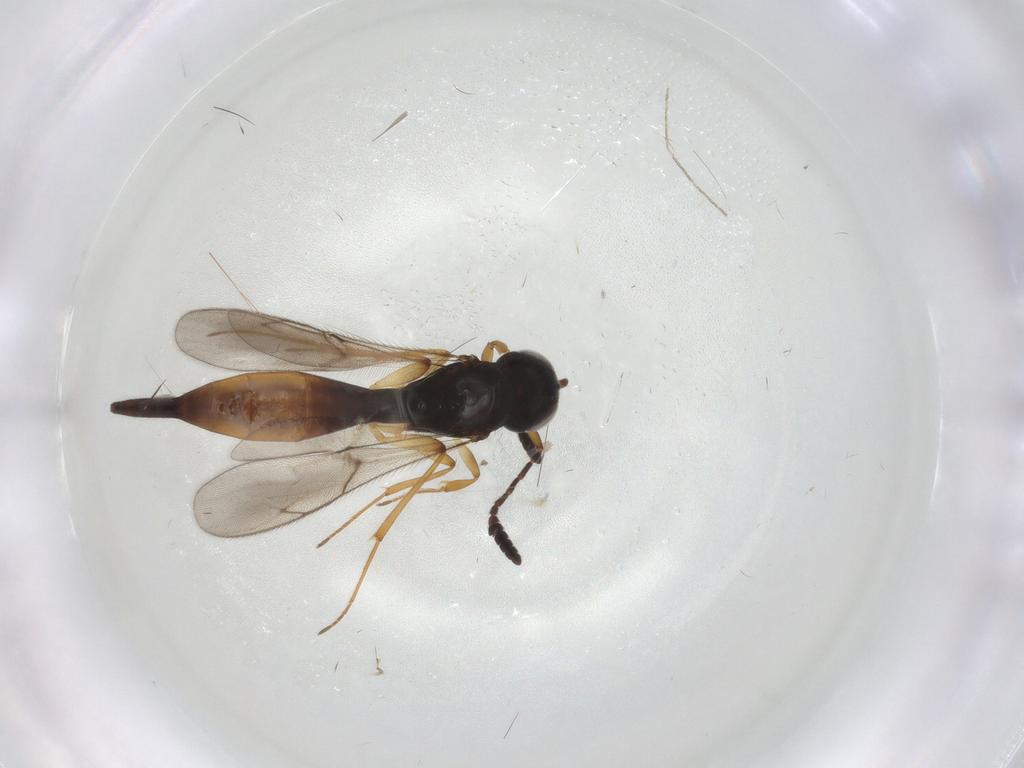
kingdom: Animalia
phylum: Arthropoda
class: Insecta
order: Hymenoptera
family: Scelionidae
